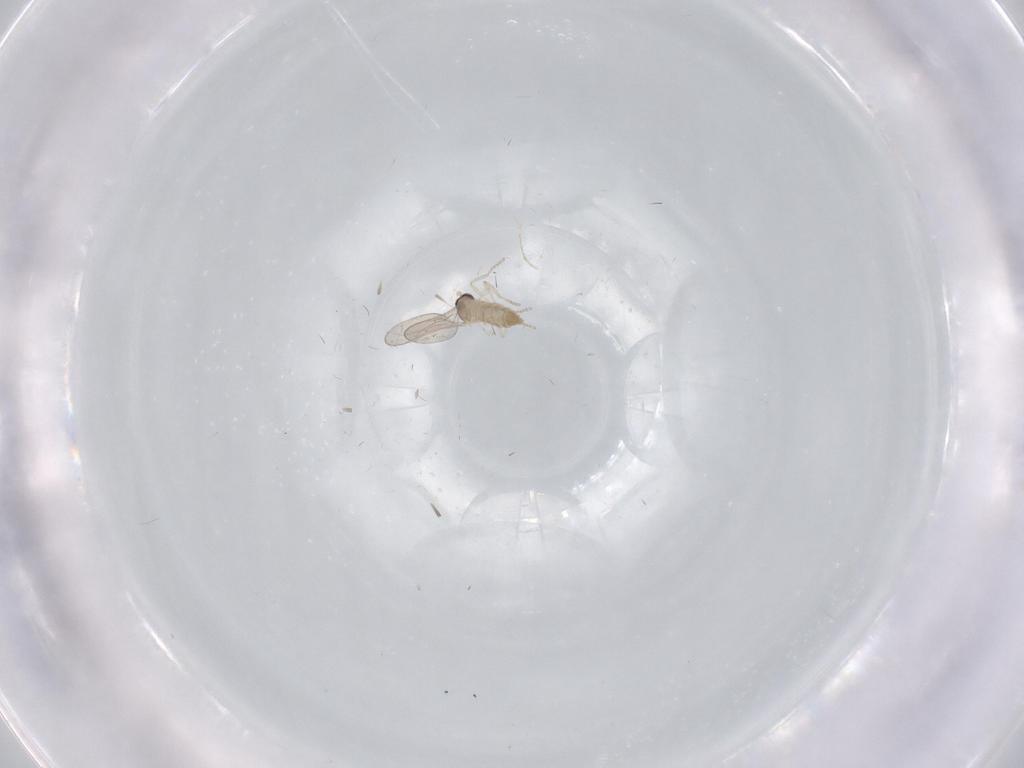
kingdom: Animalia
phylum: Arthropoda
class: Insecta
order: Diptera
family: Cecidomyiidae
